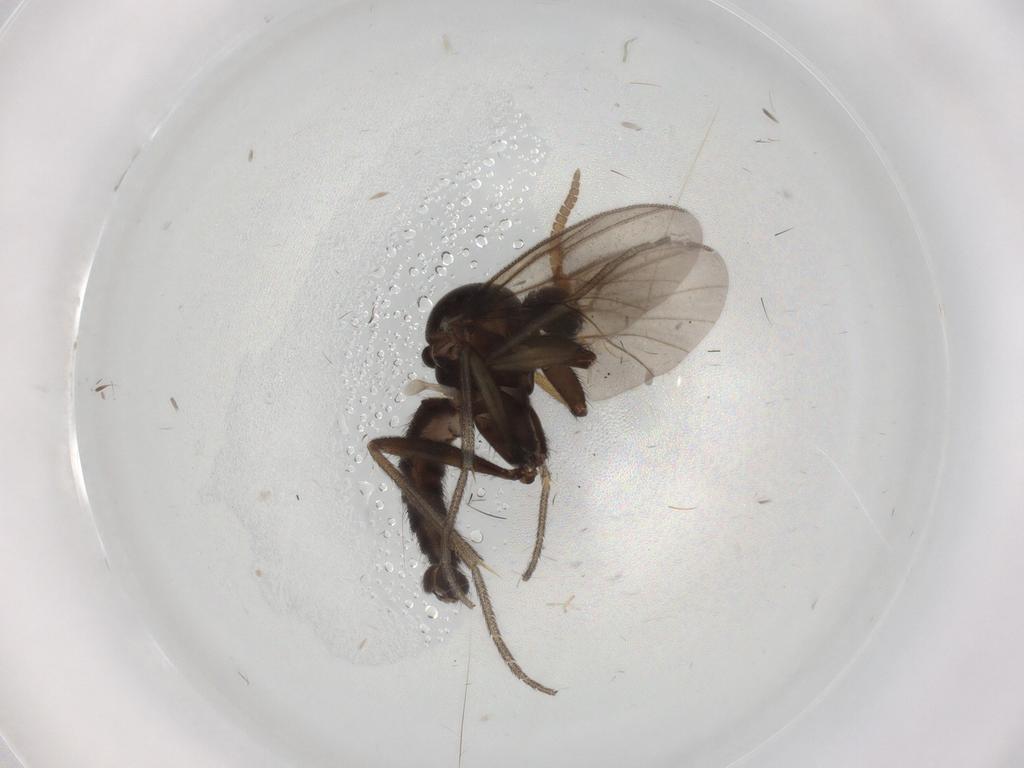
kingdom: Animalia
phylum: Arthropoda
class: Insecta
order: Diptera
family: Mycetophilidae
